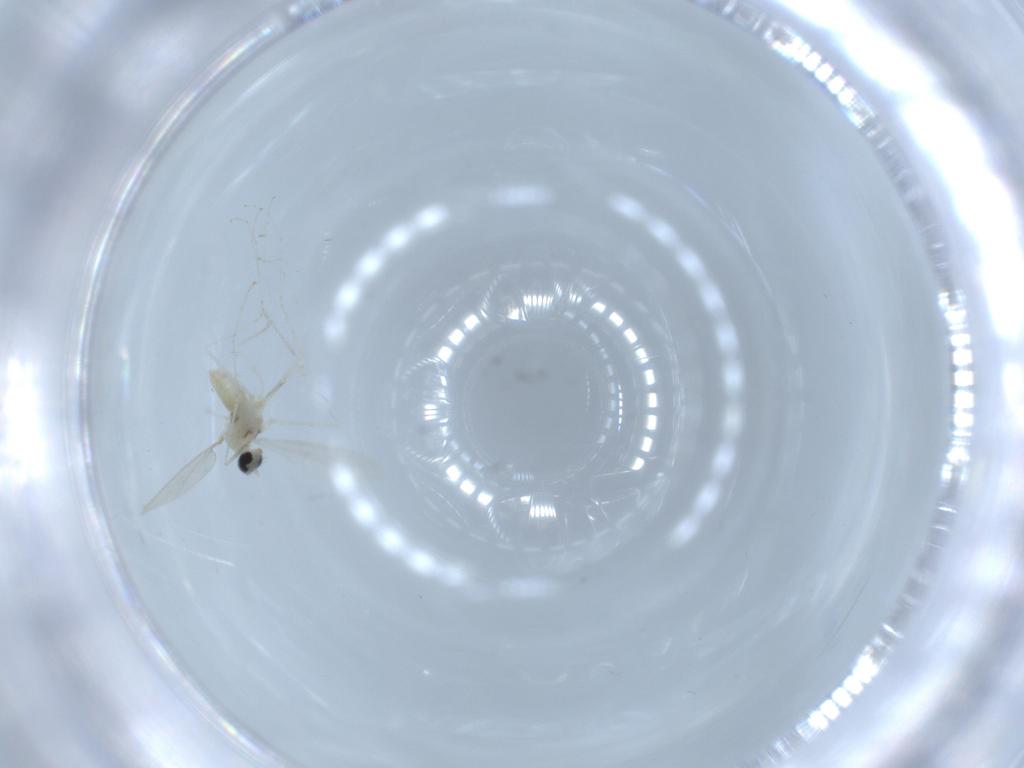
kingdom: Animalia
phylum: Arthropoda
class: Insecta
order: Diptera
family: Cecidomyiidae
